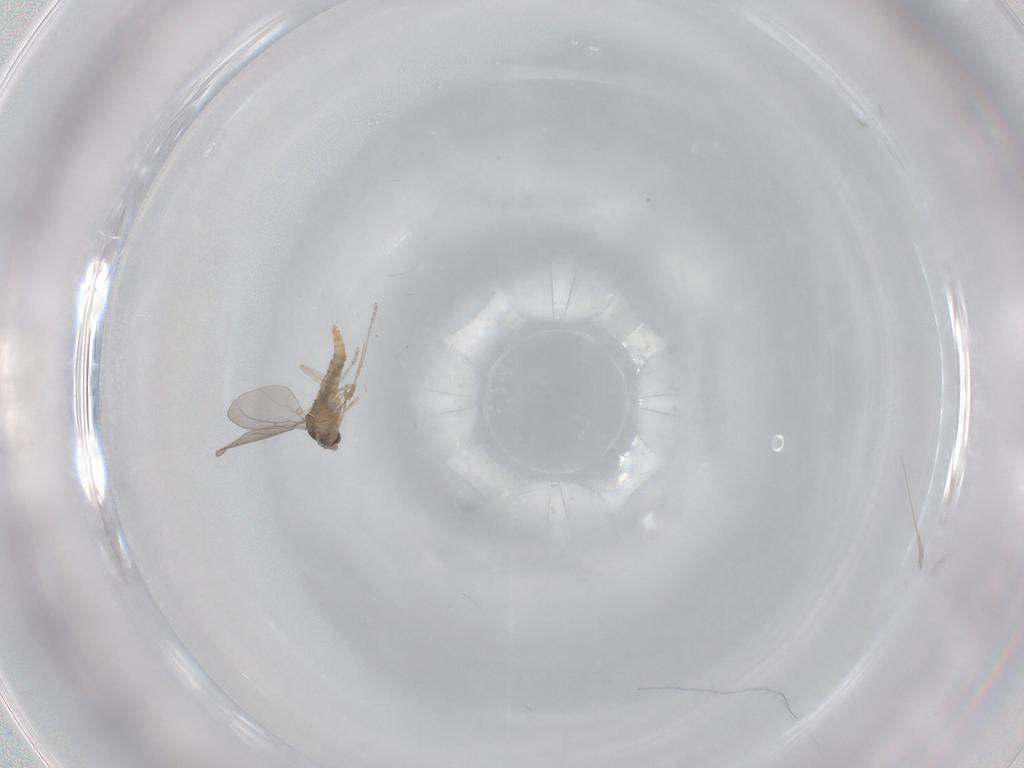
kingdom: Animalia
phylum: Arthropoda
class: Insecta
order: Diptera
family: Cecidomyiidae
